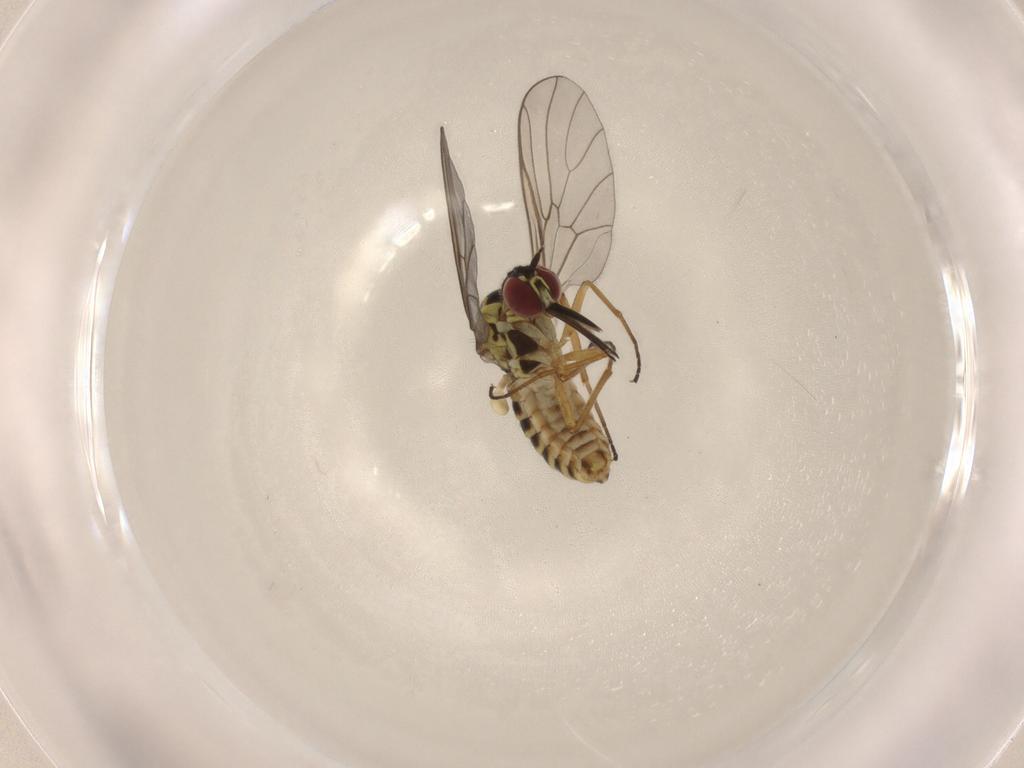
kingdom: Animalia
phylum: Arthropoda
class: Insecta
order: Diptera
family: Mythicomyiidae
